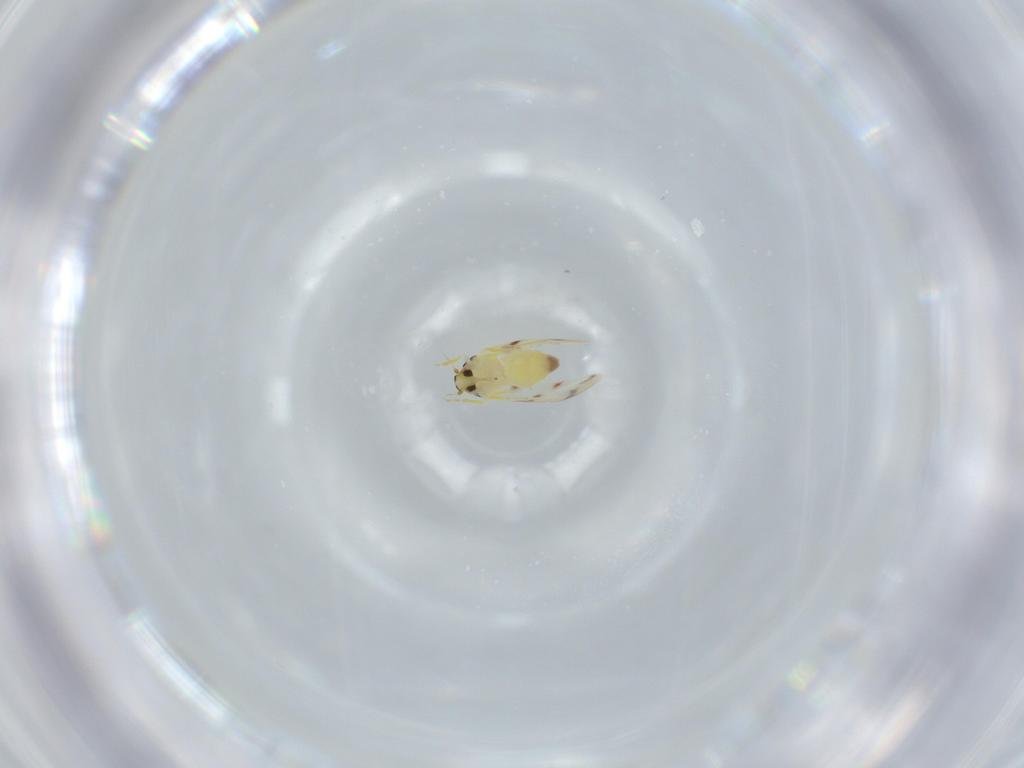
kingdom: Animalia
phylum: Arthropoda
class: Insecta
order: Hemiptera
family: Aleyrodidae
